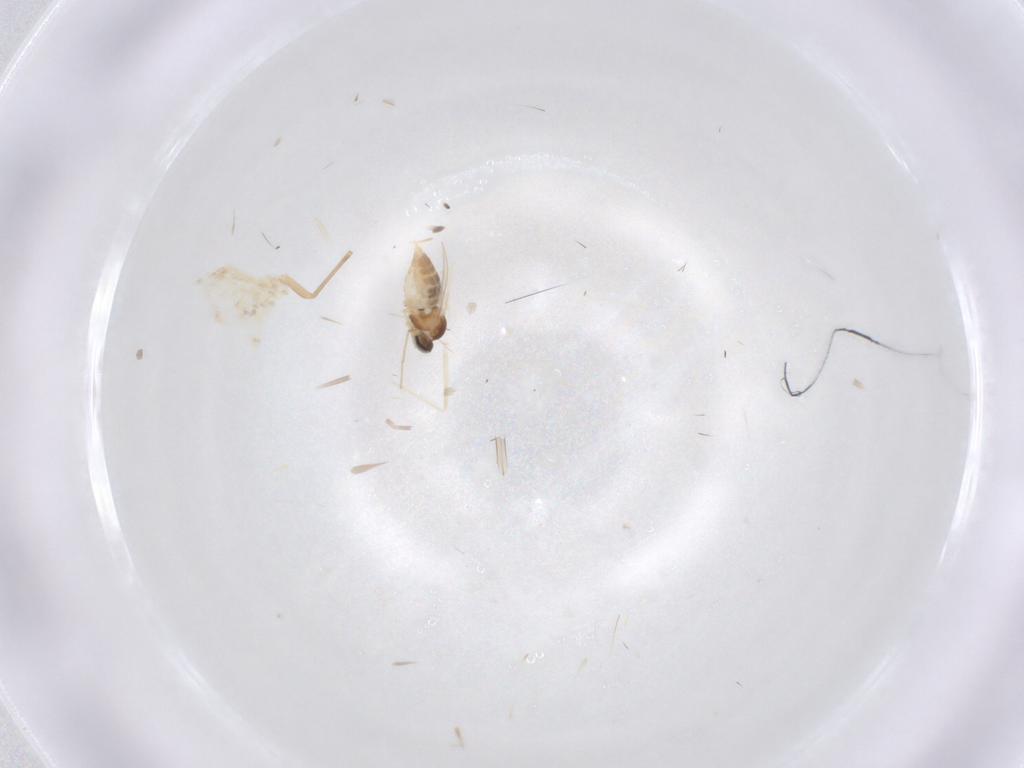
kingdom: Animalia
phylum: Arthropoda
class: Insecta
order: Diptera
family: Cecidomyiidae
